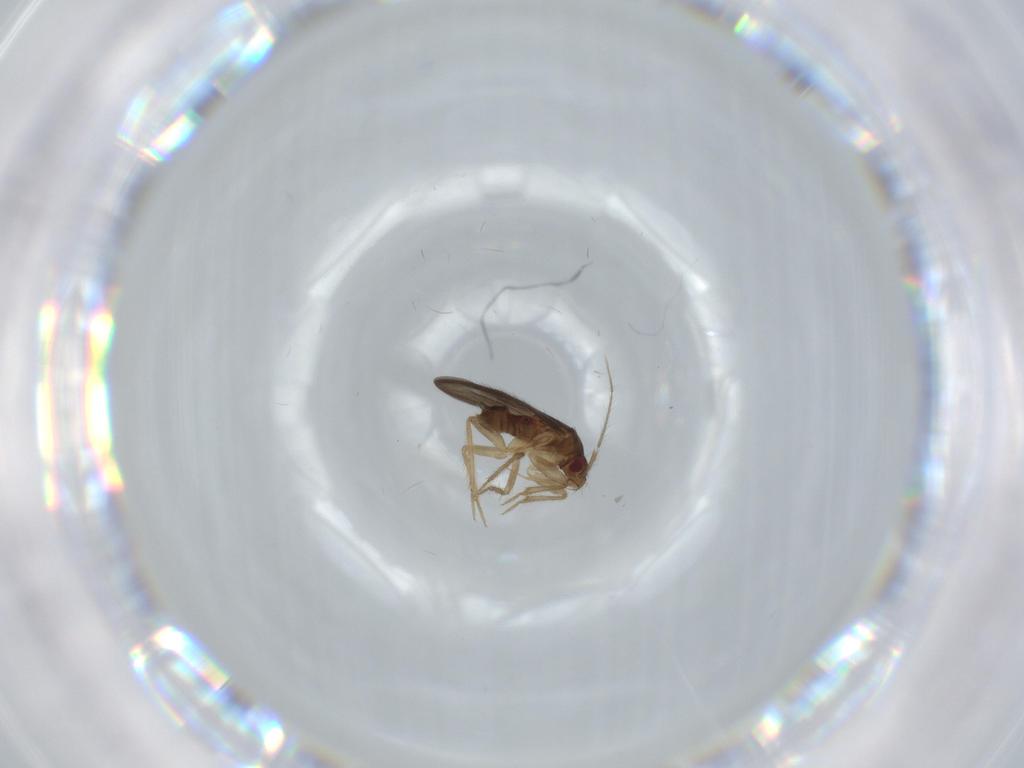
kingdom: Animalia
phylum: Arthropoda
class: Insecta
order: Hemiptera
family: Ceratocombidae
